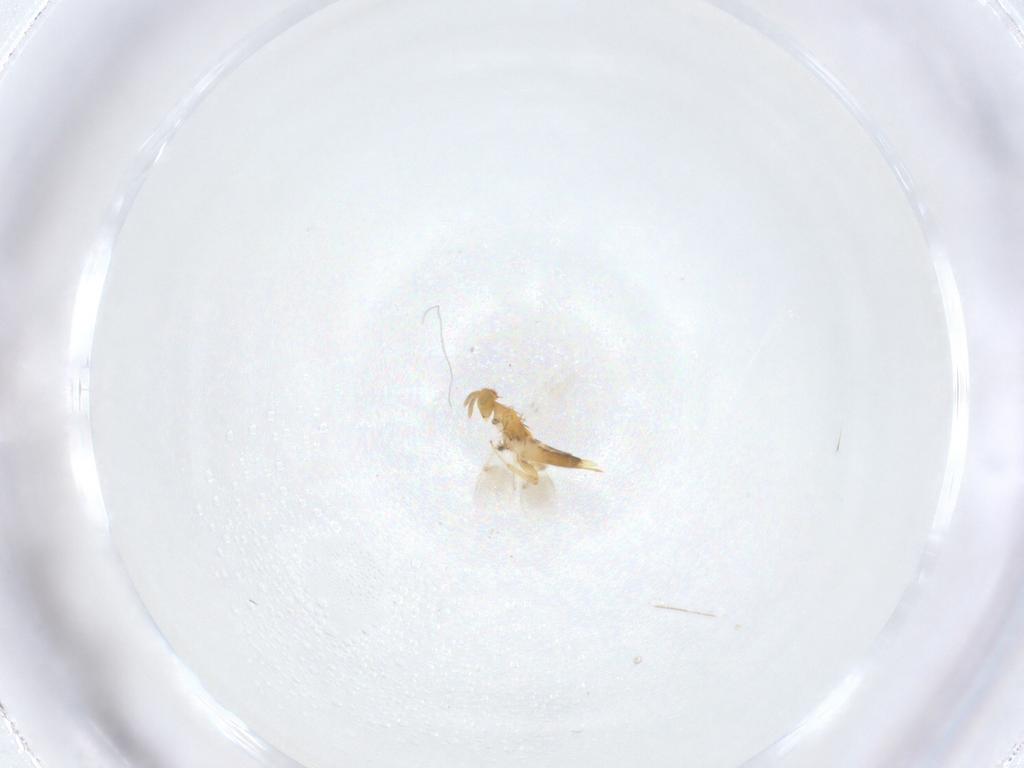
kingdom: Animalia
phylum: Arthropoda
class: Insecta
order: Hymenoptera
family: Aphelinidae
